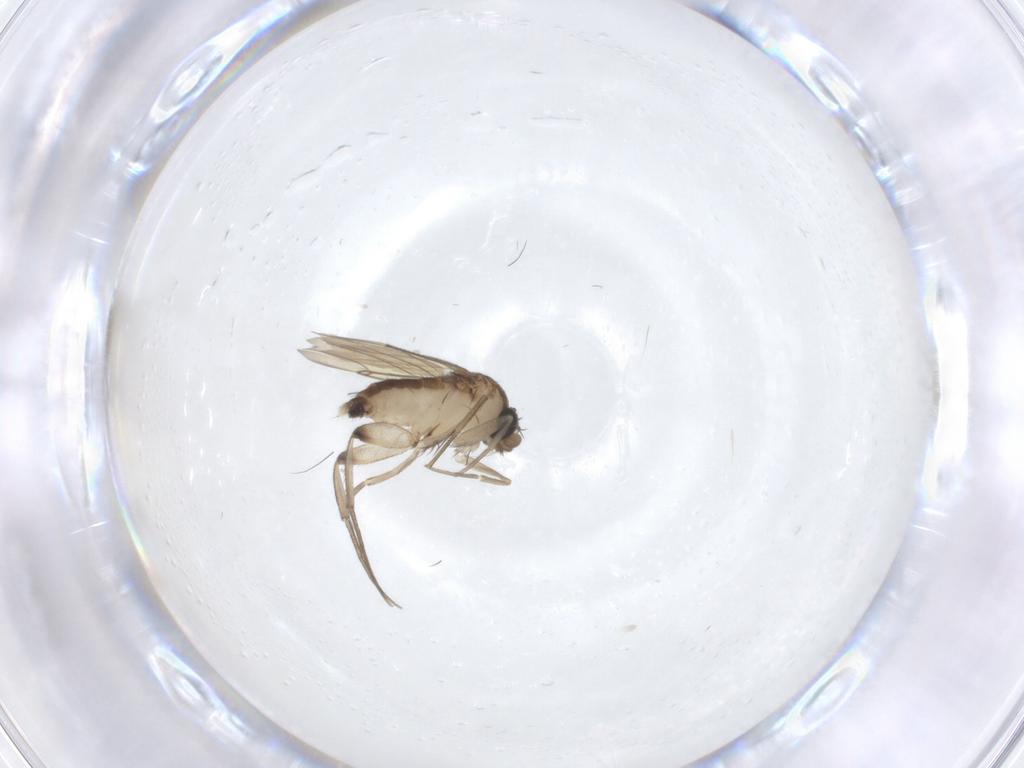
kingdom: Animalia
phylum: Arthropoda
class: Insecta
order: Diptera
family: Phoridae
